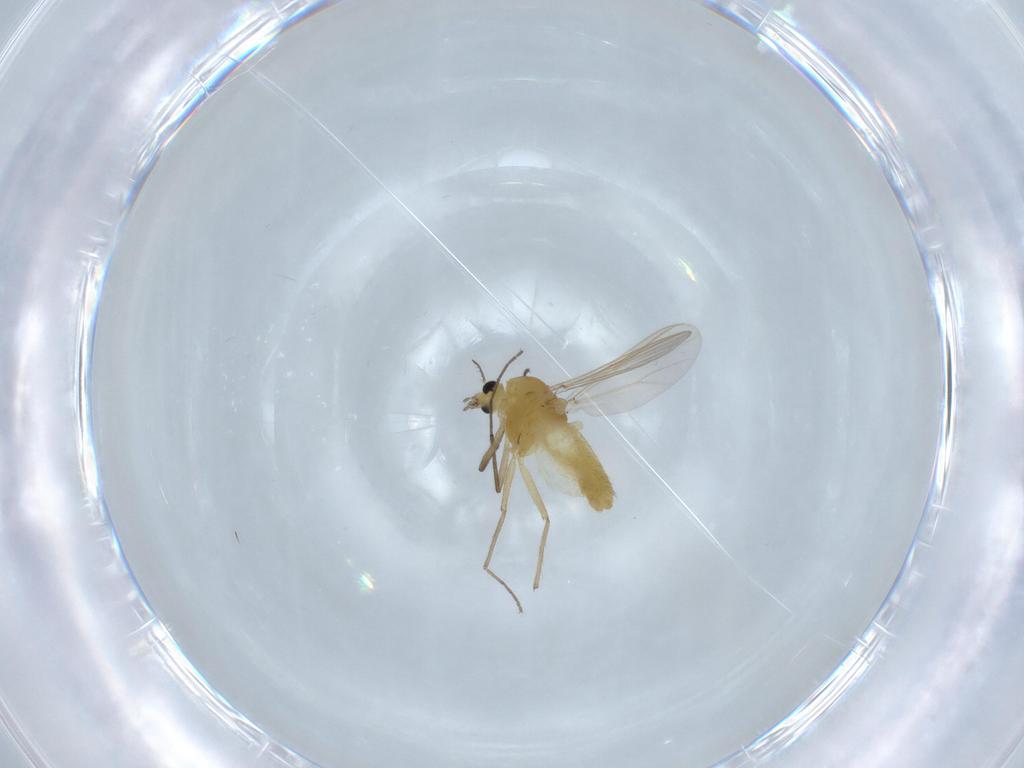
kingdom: Animalia
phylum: Arthropoda
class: Insecta
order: Diptera
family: Chironomidae
